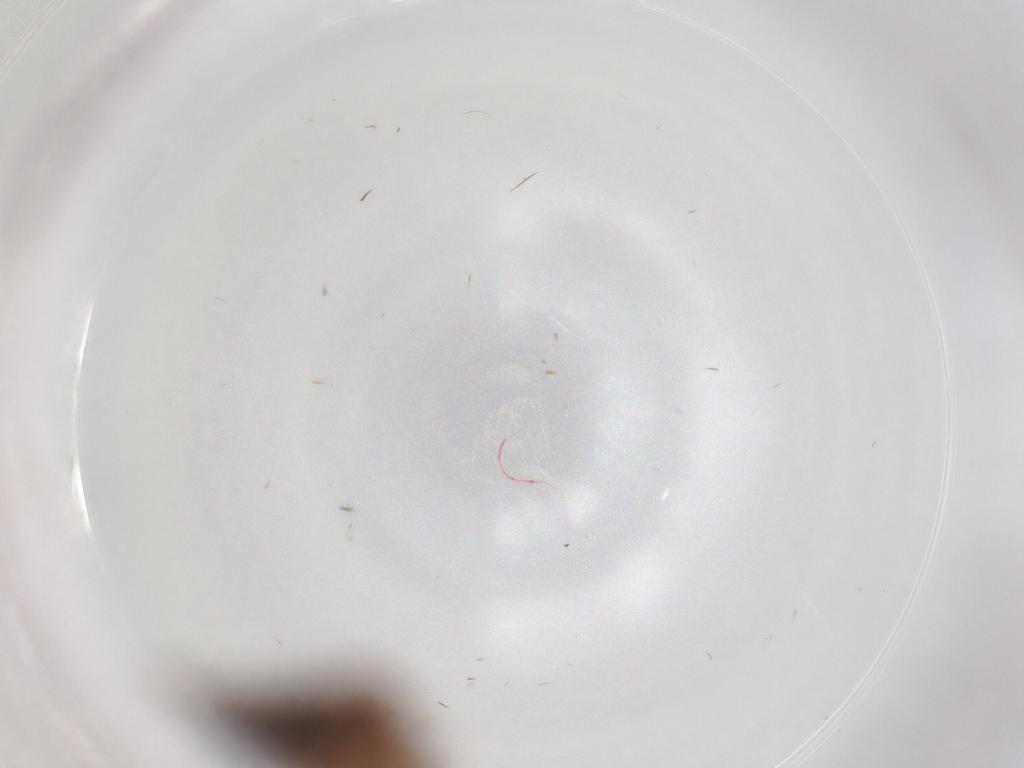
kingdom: Animalia
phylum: Arthropoda
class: Insecta
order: Hemiptera
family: Cicadellidae
